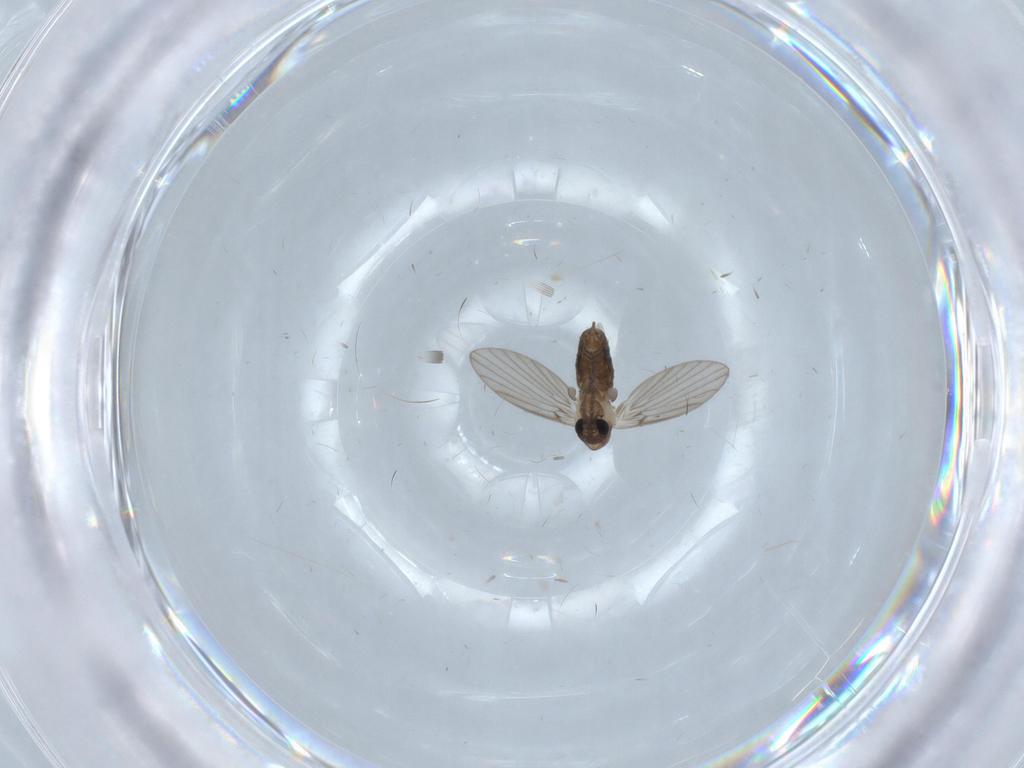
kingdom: Animalia
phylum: Arthropoda
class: Insecta
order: Diptera
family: Psychodidae
